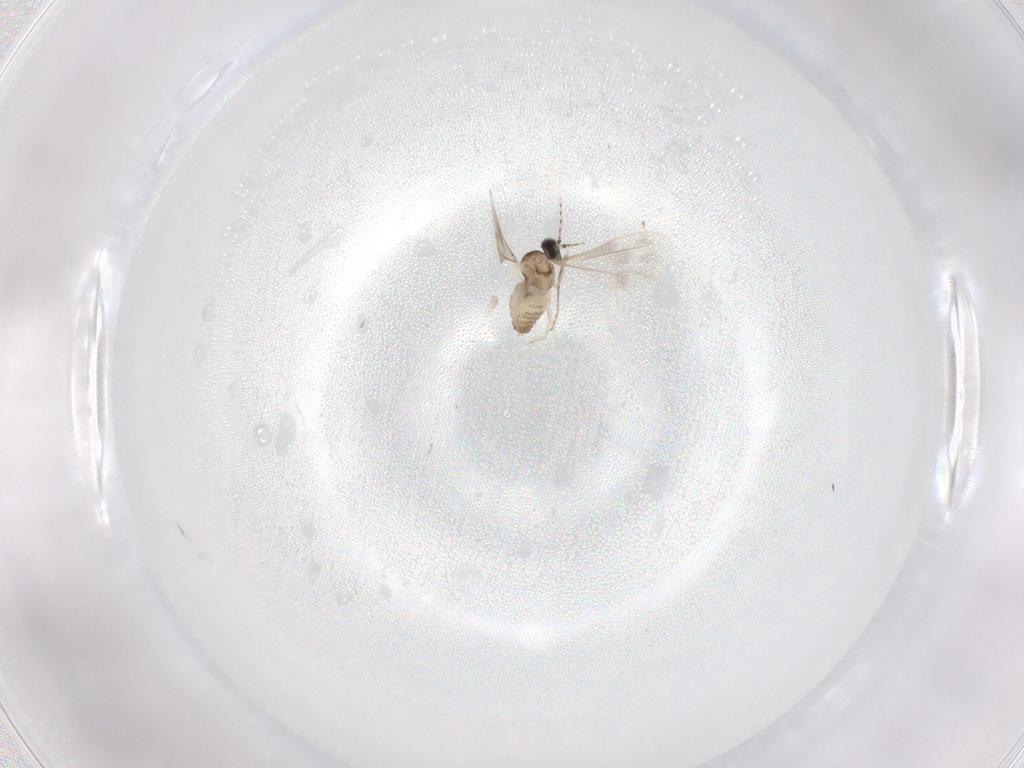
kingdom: Animalia
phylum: Arthropoda
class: Insecta
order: Diptera
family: Cecidomyiidae
